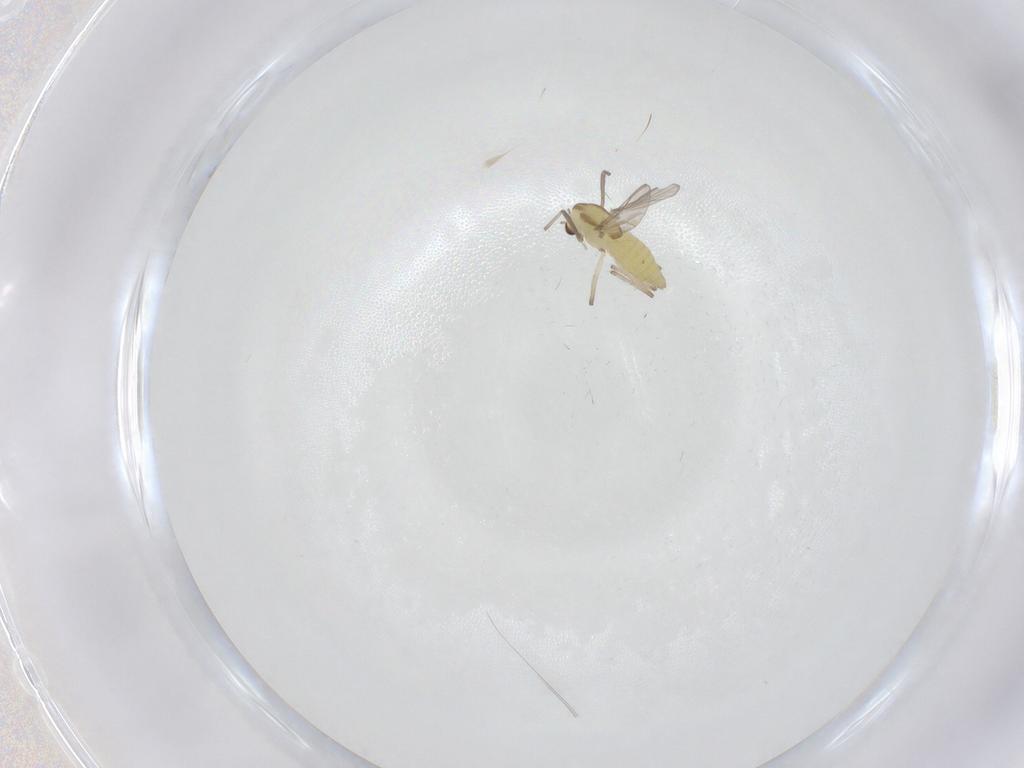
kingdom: Animalia
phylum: Arthropoda
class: Insecta
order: Diptera
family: Chironomidae
